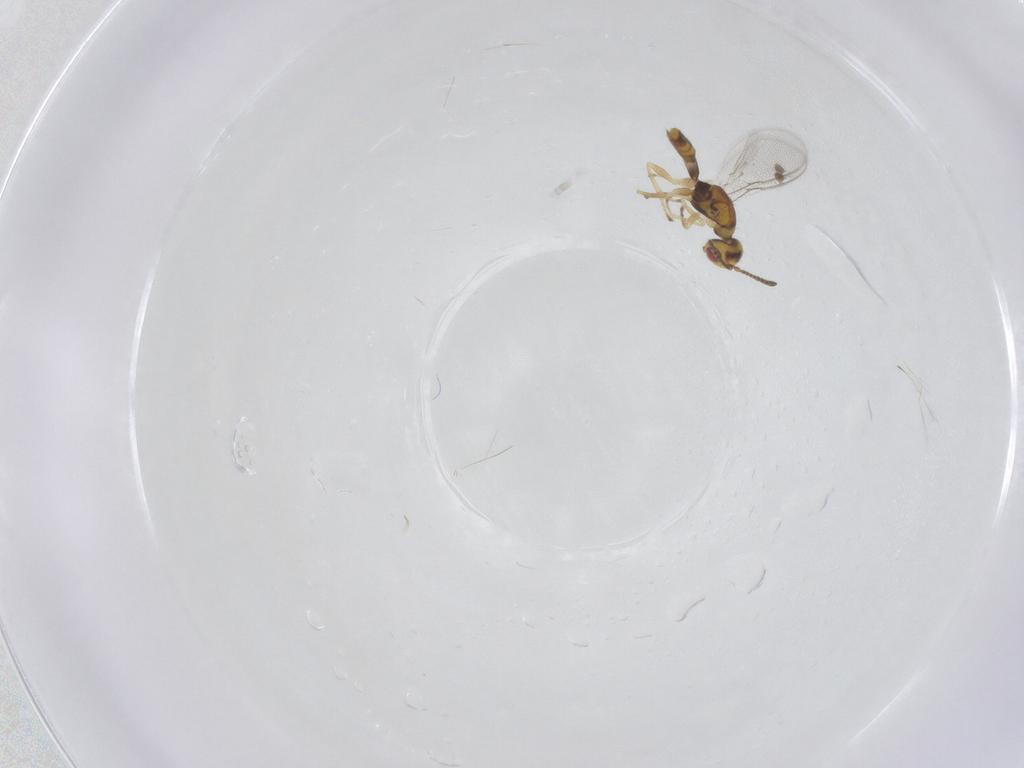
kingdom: Animalia
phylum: Arthropoda
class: Insecta
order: Hymenoptera
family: Megastigmidae
